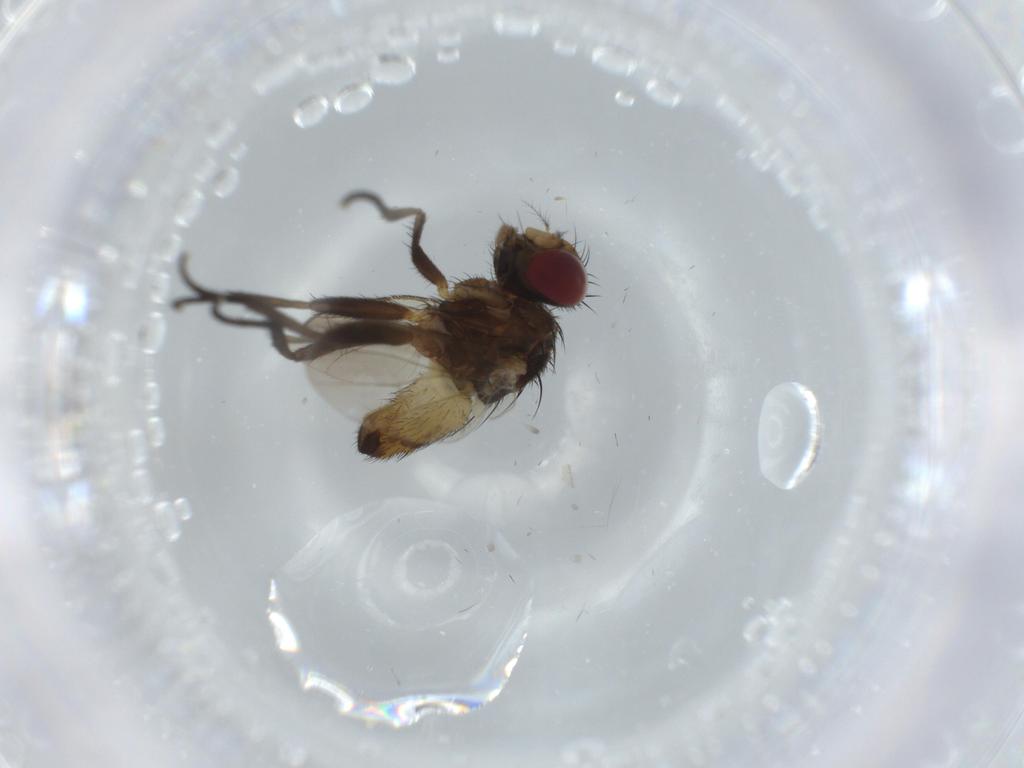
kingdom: Animalia
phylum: Arthropoda
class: Insecta
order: Diptera
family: Anthomyiidae
